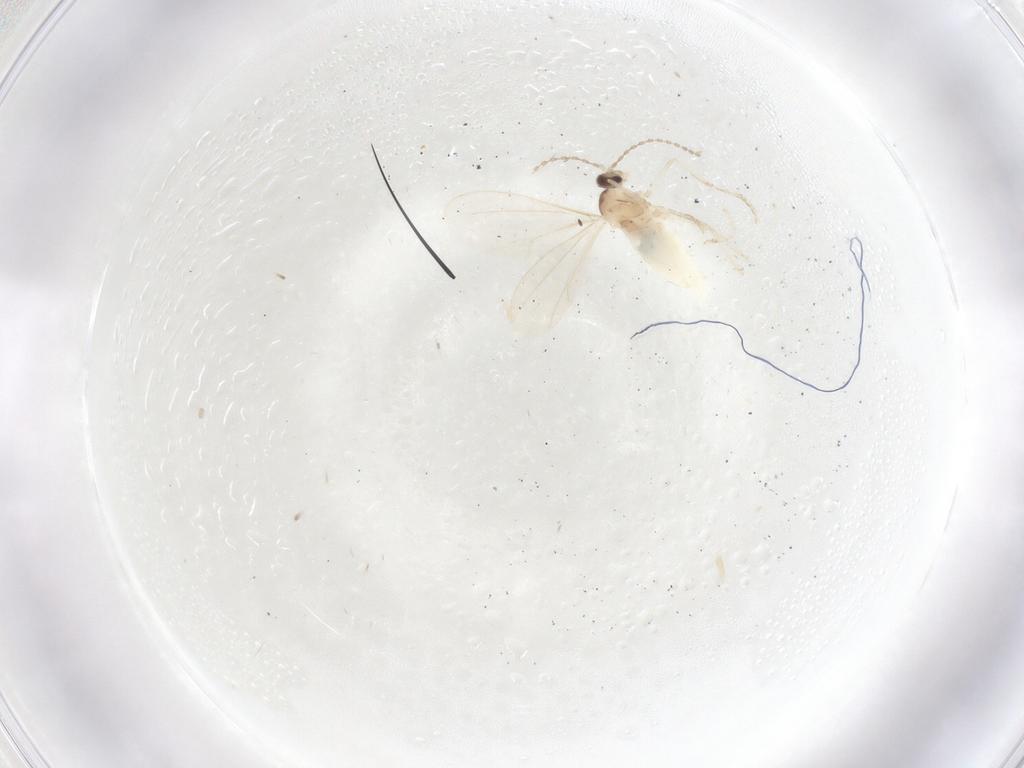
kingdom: Animalia
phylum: Arthropoda
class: Insecta
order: Diptera
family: Cecidomyiidae
